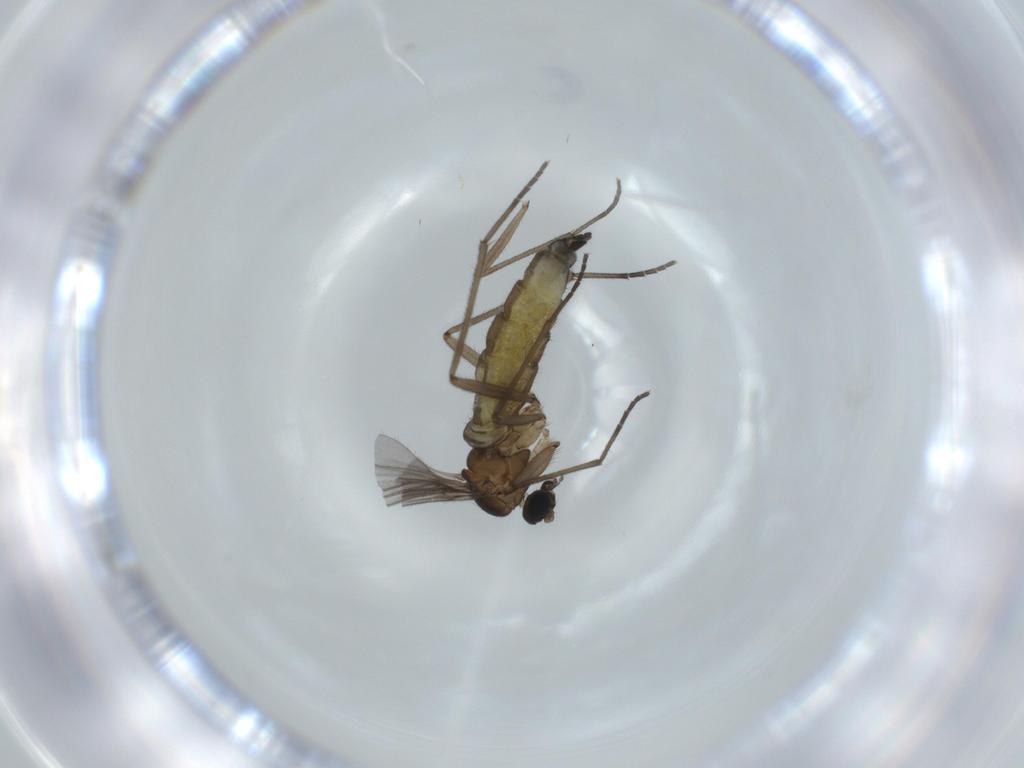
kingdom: Animalia
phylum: Arthropoda
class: Insecta
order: Diptera
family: Sciaridae
